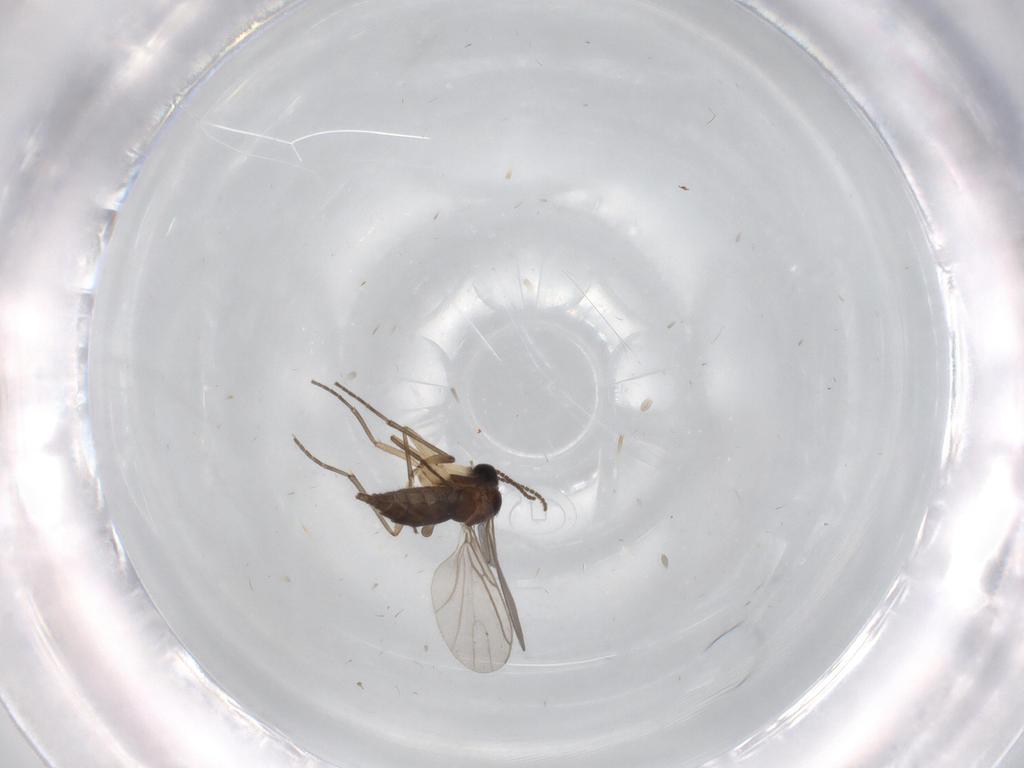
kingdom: Animalia
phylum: Arthropoda
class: Insecta
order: Diptera
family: Sciaridae
